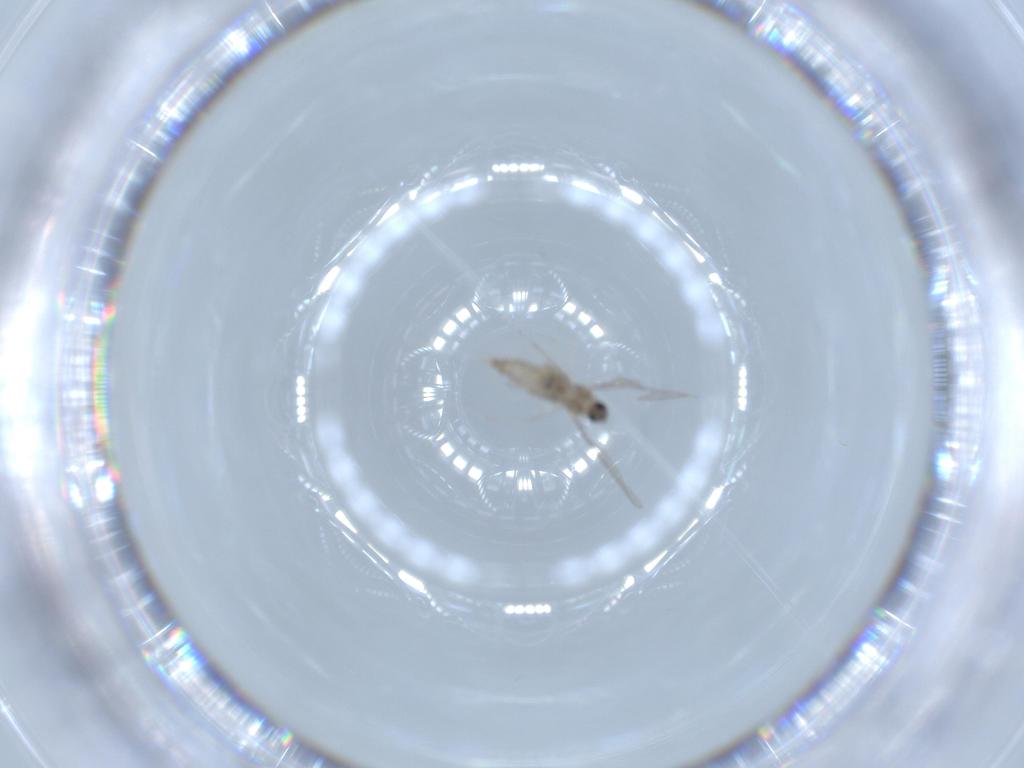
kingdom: Animalia
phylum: Arthropoda
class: Insecta
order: Diptera
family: Cecidomyiidae
